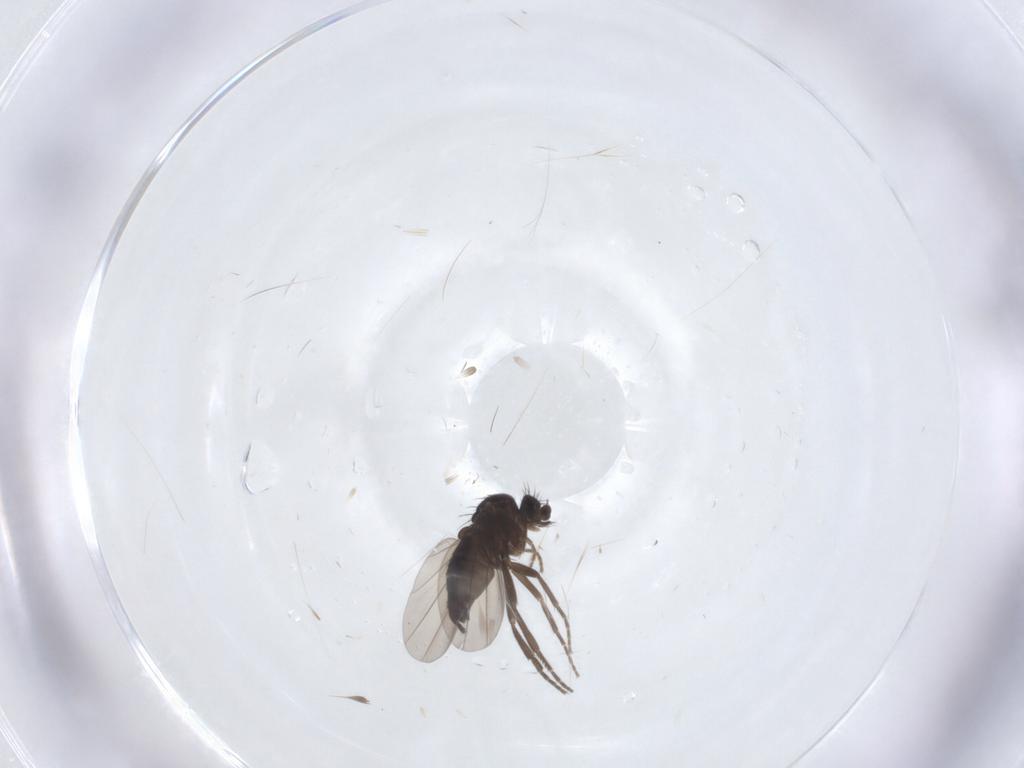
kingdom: Animalia
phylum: Arthropoda
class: Insecta
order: Diptera
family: Phoridae
